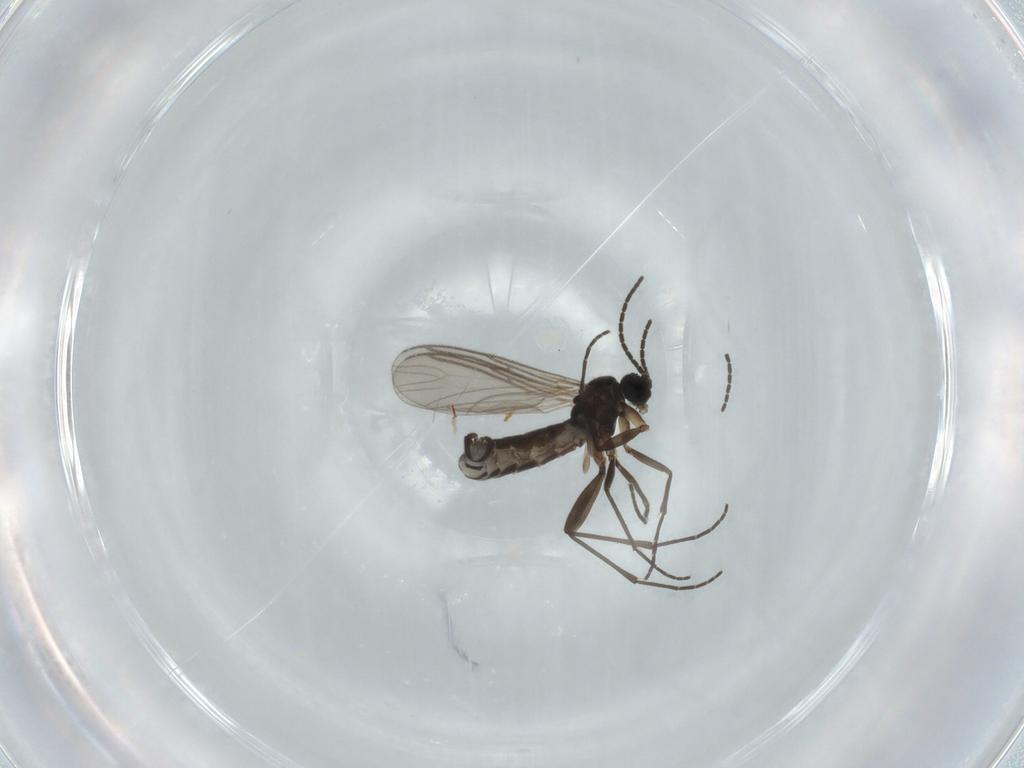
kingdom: Animalia
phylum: Arthropoda
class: Insecta
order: Diptera
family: Sciaridae
